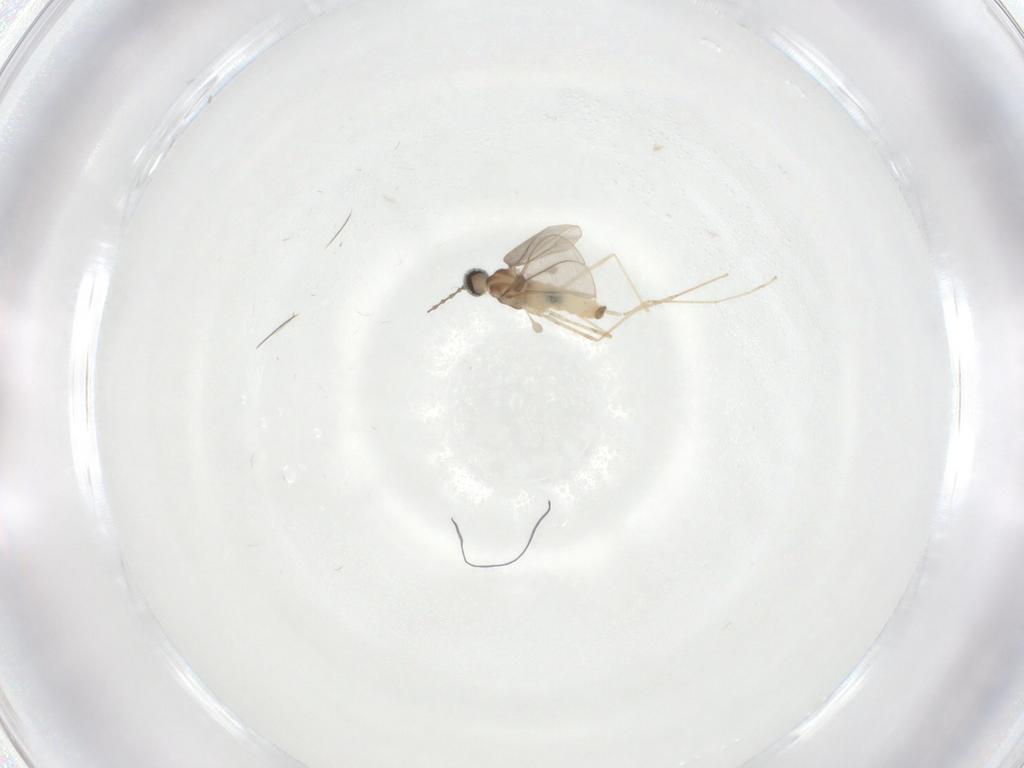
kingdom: Animalia
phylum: Arthropoda
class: Insecta
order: Diptera
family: Cecidomyiidae
